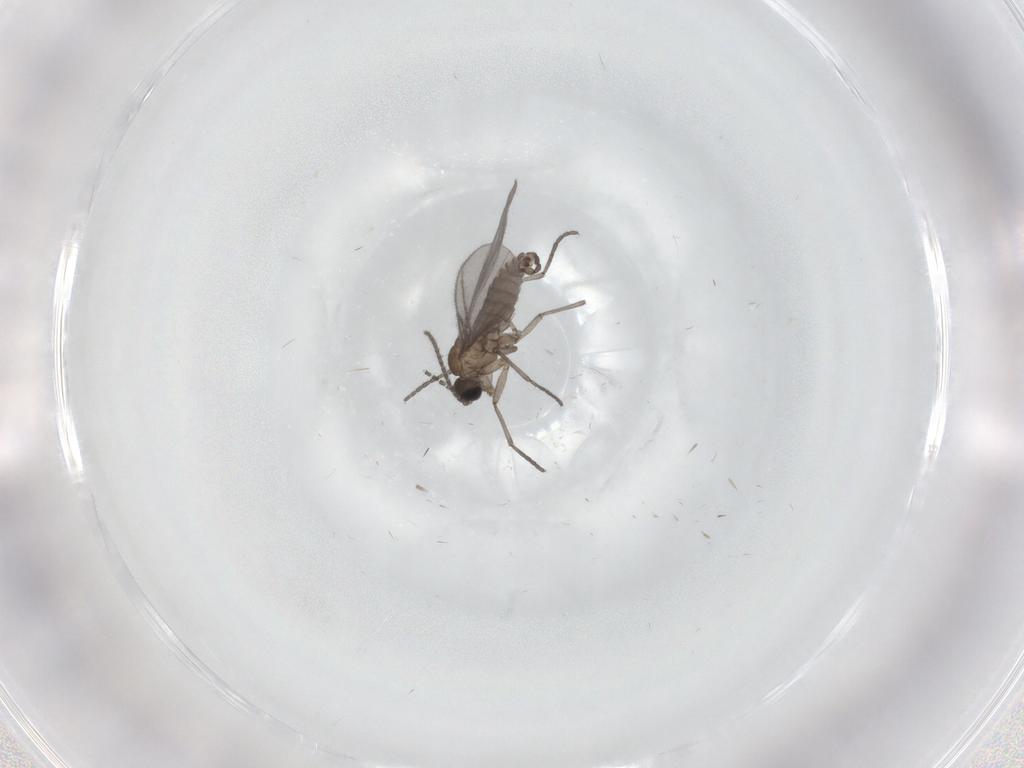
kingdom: Animalia
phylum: Arthropoda
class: Insecta
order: Diptera
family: Sciaridae
